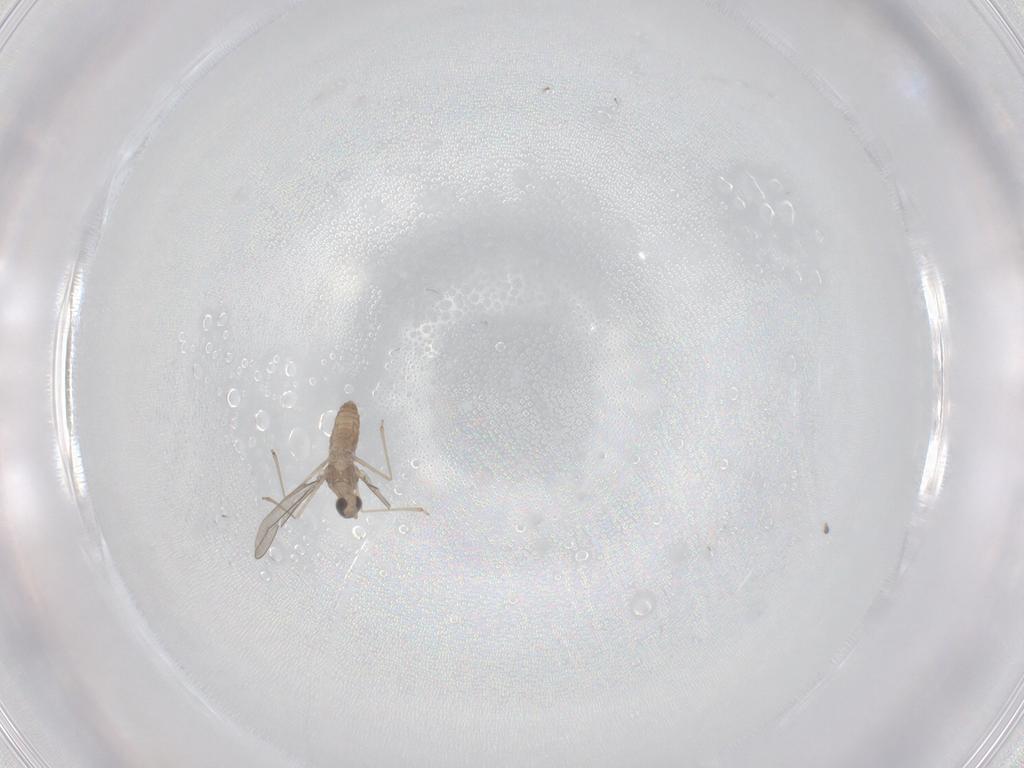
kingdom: Animalia
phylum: Arthropoda
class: Insecta
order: Diptera
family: Cecidomyiidae
